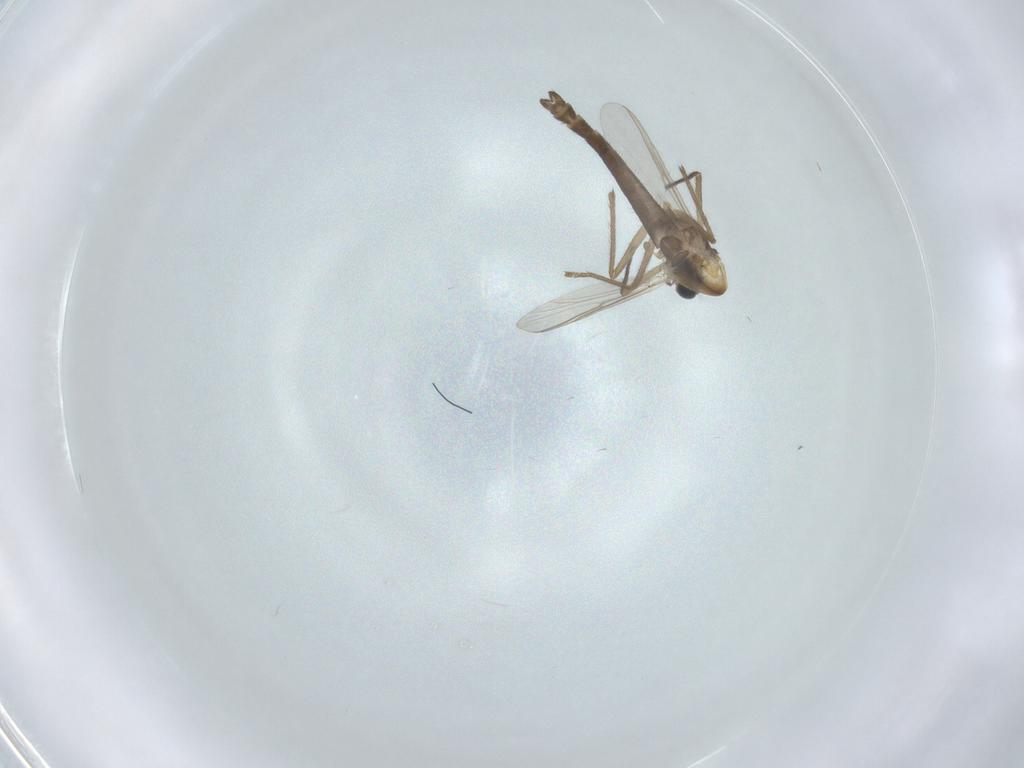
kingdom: Animalia
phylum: Arthropoda
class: Insecta
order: Diptera
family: Chironomidae
